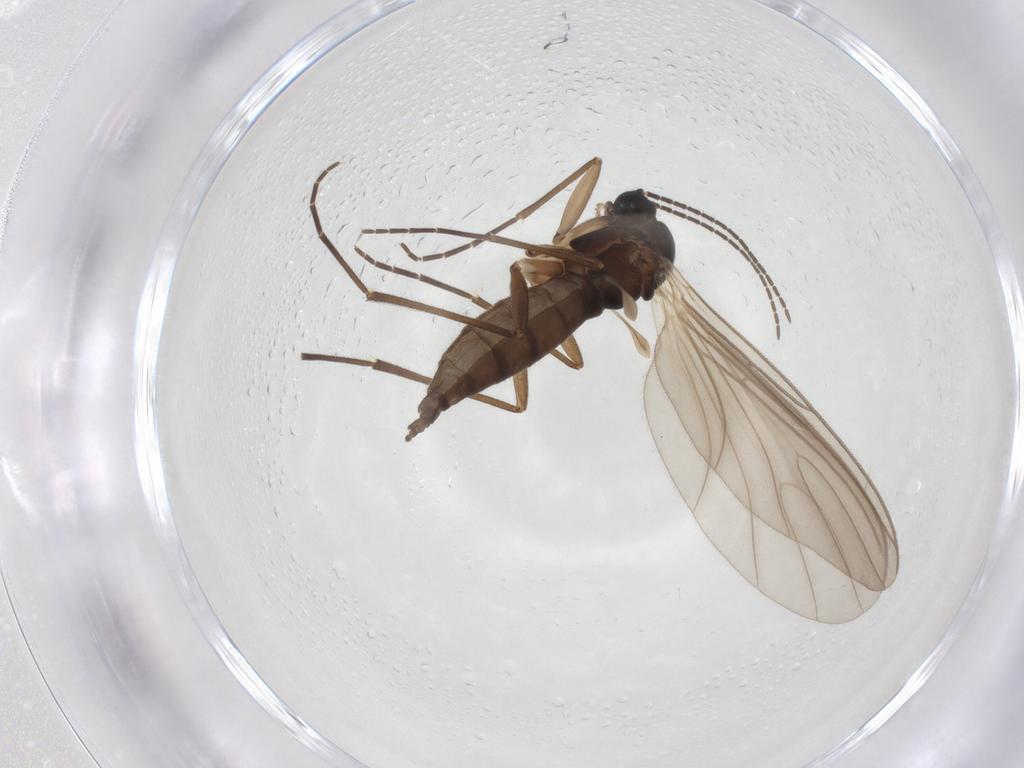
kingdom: Animalia
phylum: Arthropoda
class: Insecta
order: Diptera
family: Sciaridae
